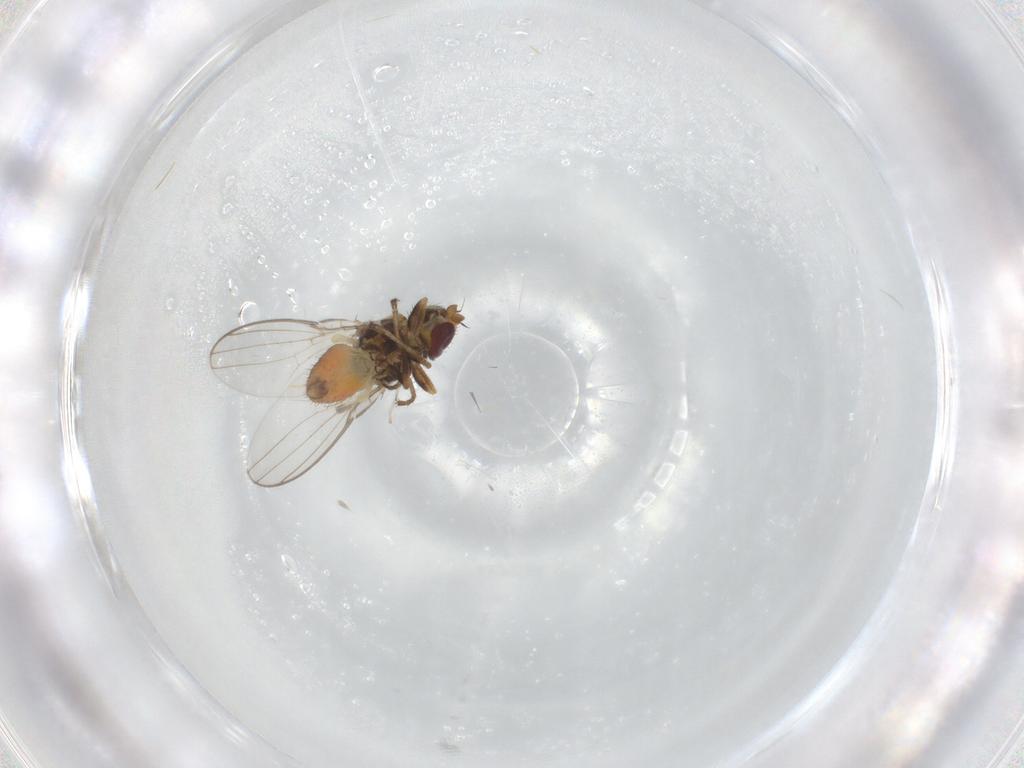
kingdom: Animalia
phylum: Arthropoda
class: Insecta
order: Diptera
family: Chloropidae
